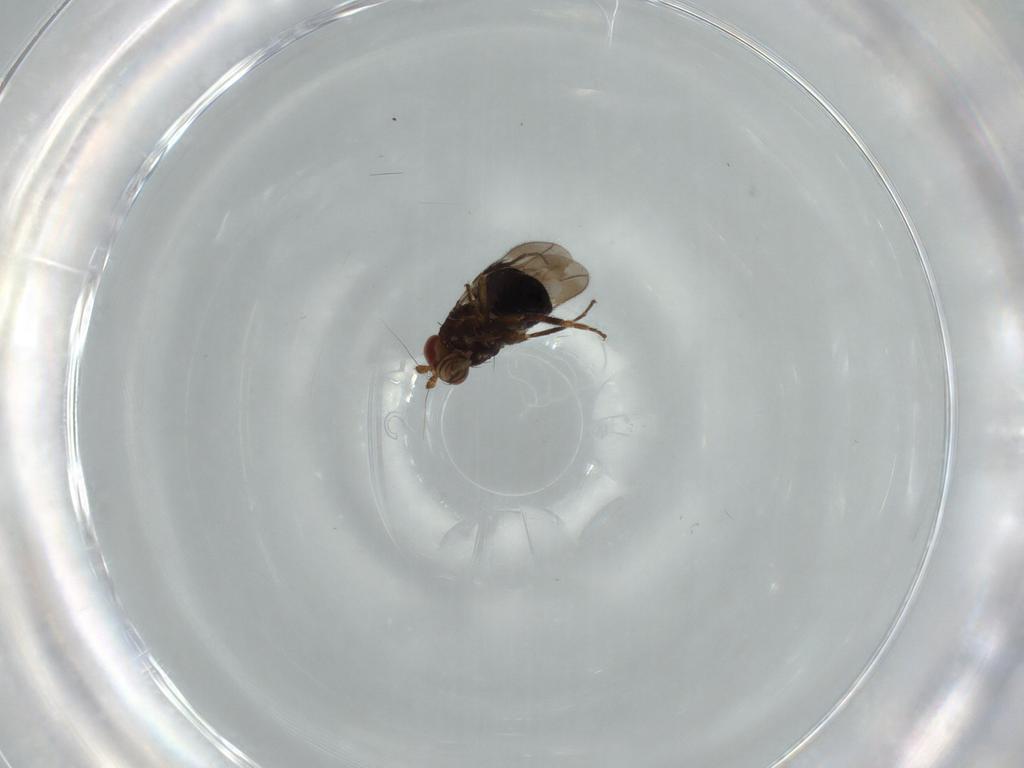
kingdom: Animalia
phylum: Arthropoda
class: Insecta
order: Diptera
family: Sphaeroceridae
